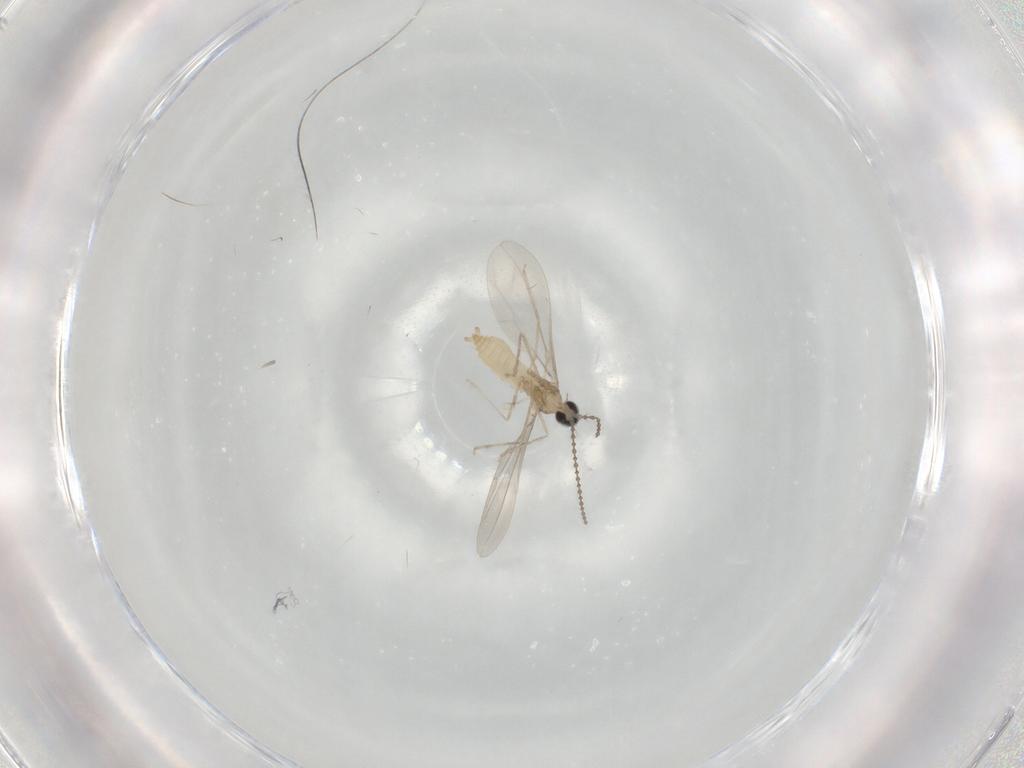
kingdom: Animalia
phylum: Arthropoda
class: Insecta
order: Diptera
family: Cecidomyiidae
